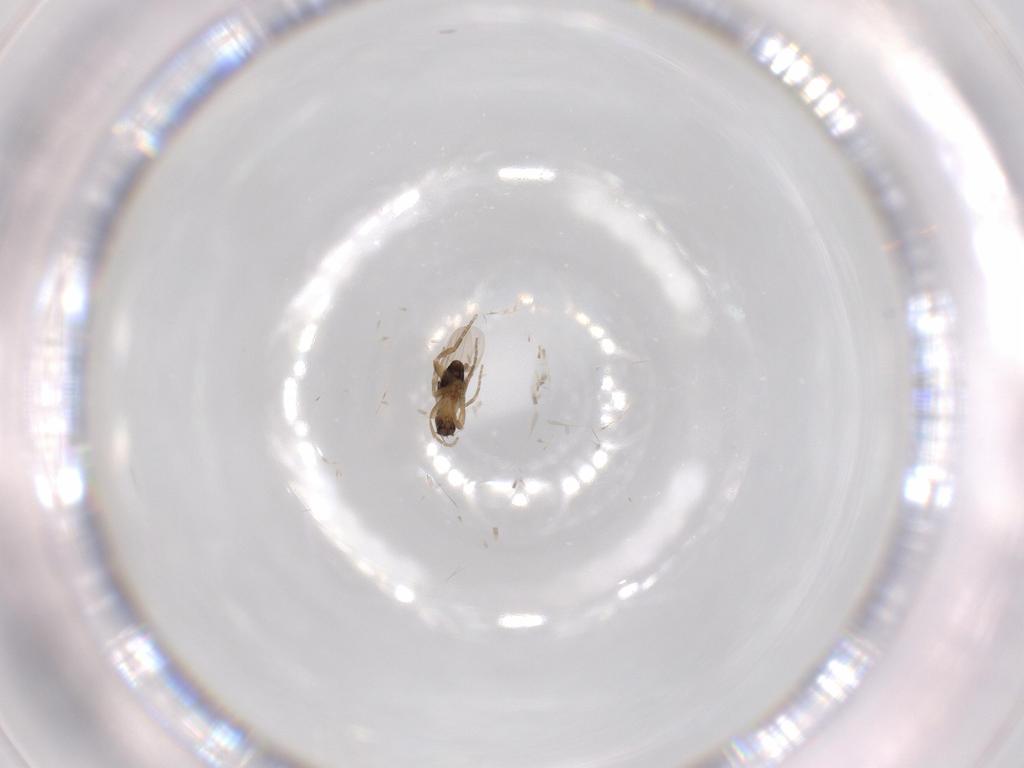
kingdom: Animalia
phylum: Arthropoda
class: Insecta
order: Diptera
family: Phoridae
